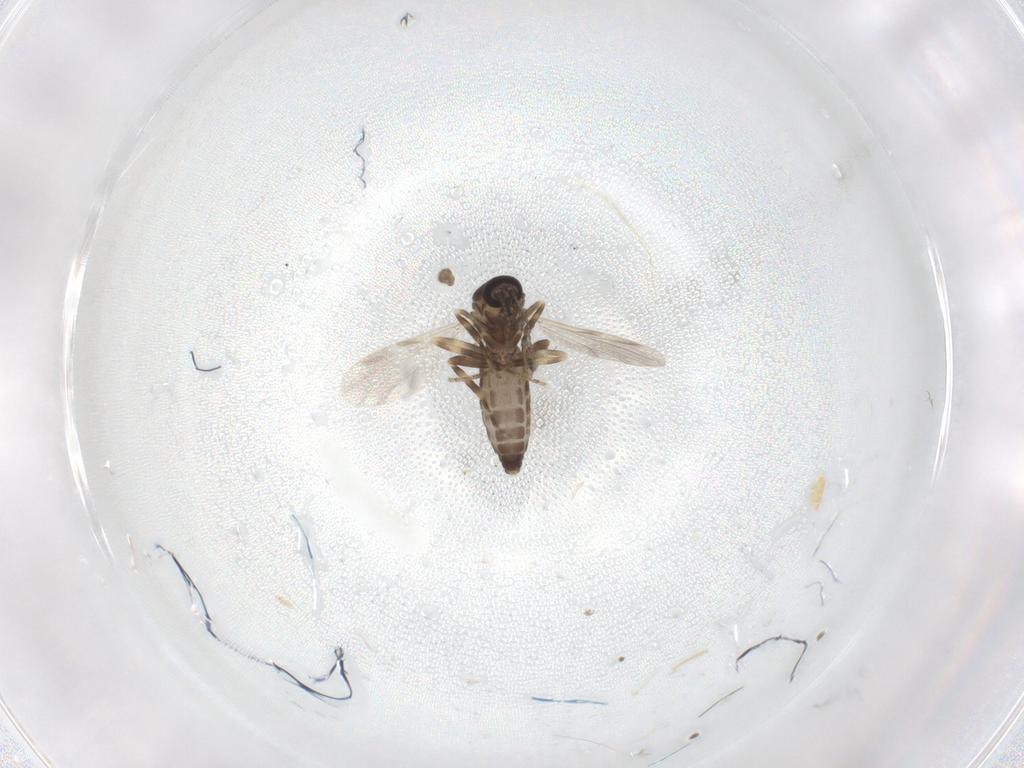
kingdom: Animalia
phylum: Arthropoda
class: Insecta
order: Diptera
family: Ceratopogonidae
